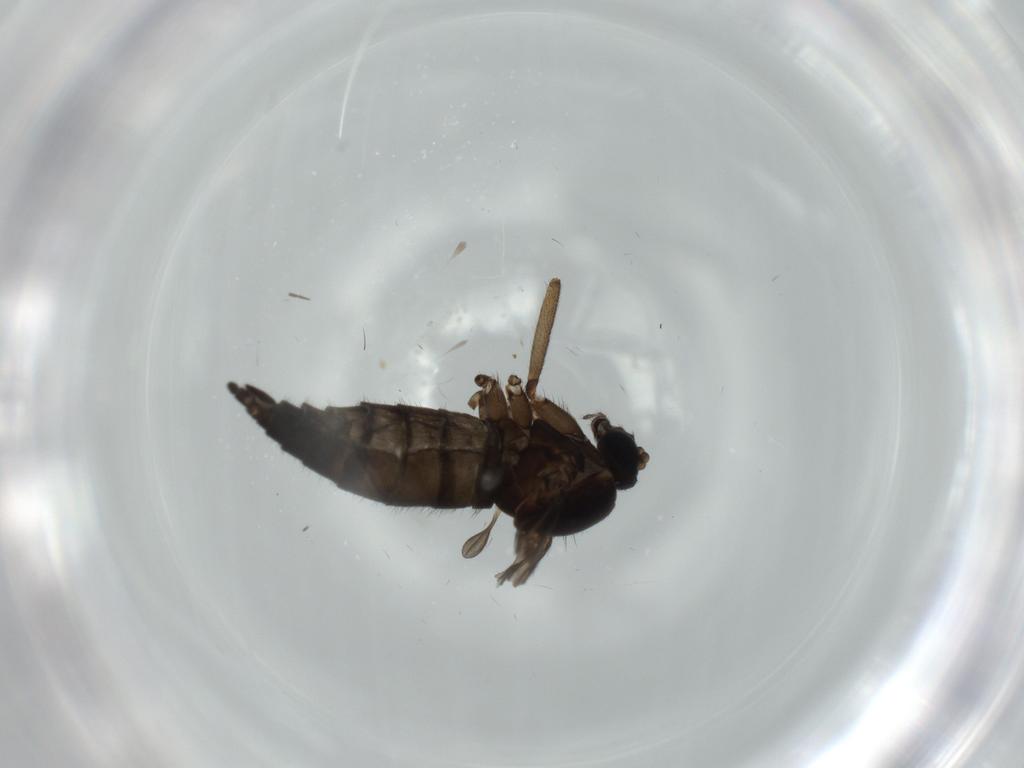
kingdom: Animalia
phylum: Arthropoda
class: Insecta
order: Diptera
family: Sciaridae
